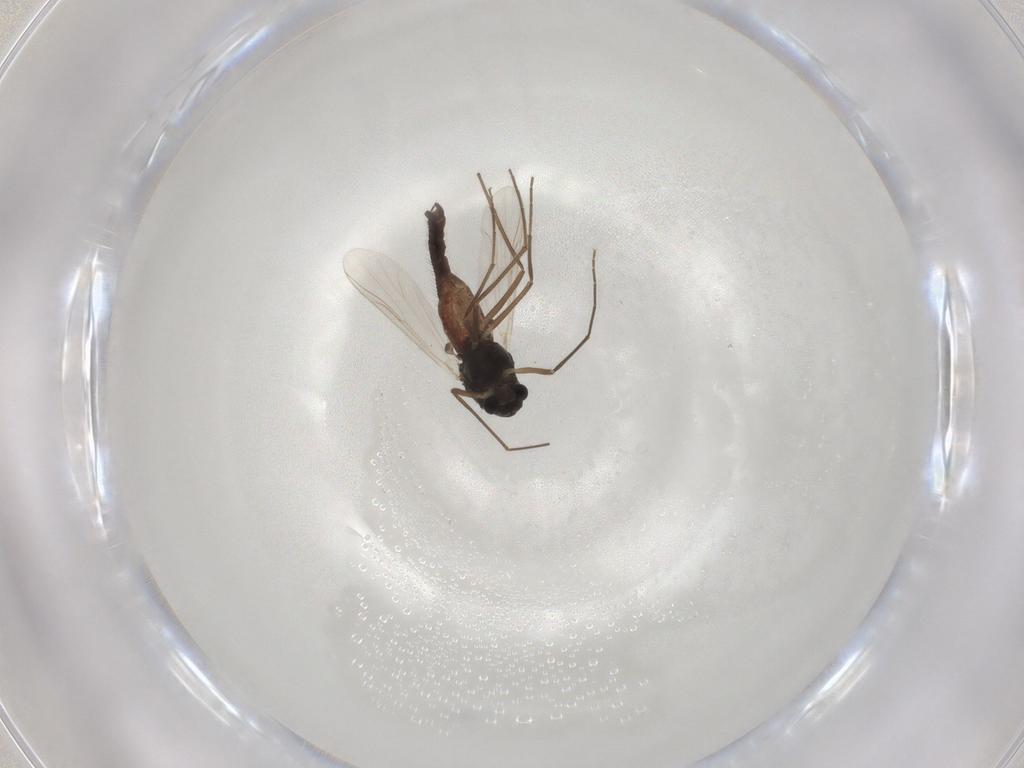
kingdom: Animalia
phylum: Arthropoda
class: Insecta
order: Diptera
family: Chironomidae
